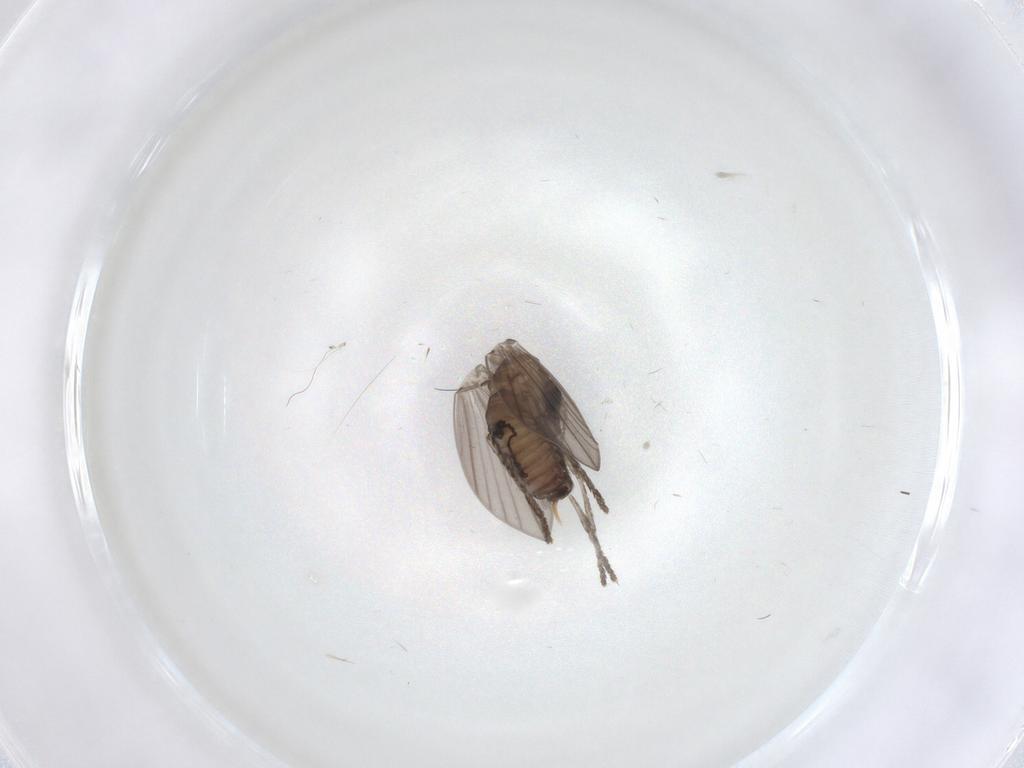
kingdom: Animalia
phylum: Arthropoda
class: Insecta
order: Diptera
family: Psychodidae
